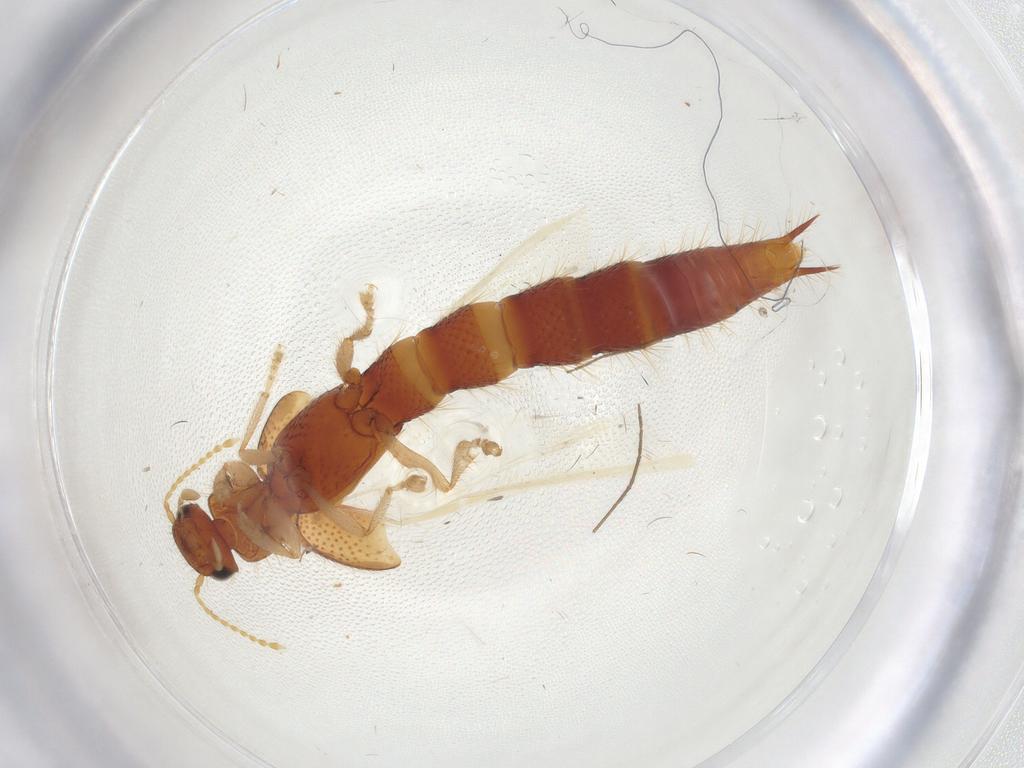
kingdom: Animalia
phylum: Arthropoda
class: Insecta
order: Coleoptera
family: Staphylinidae
